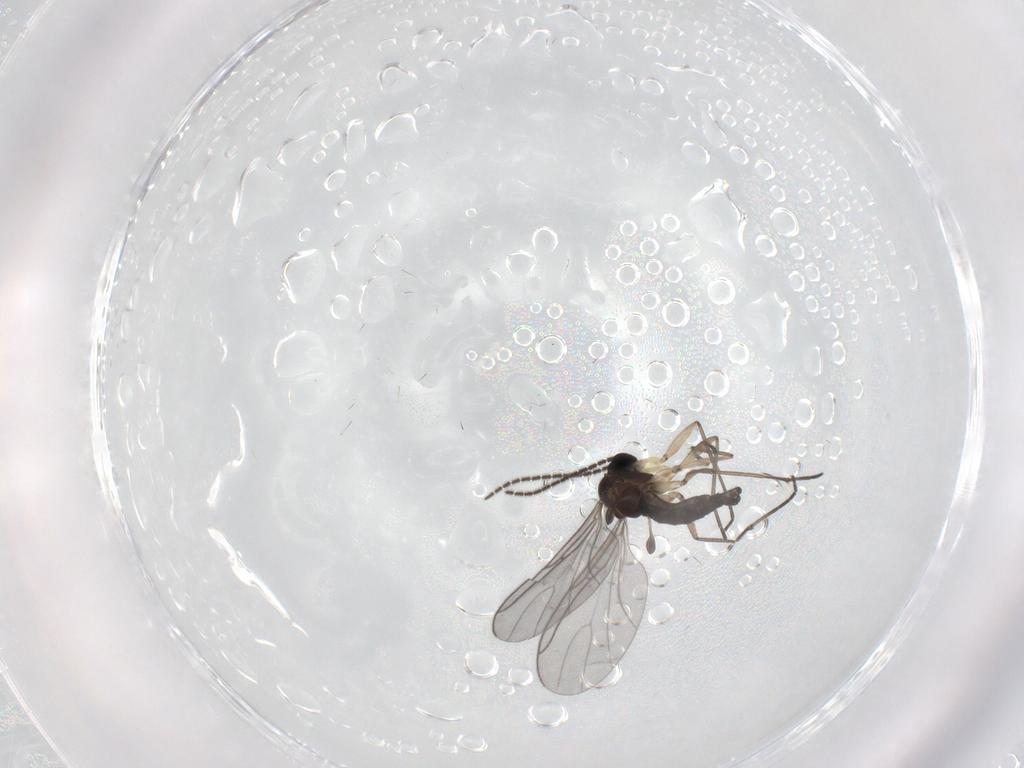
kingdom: Animalia
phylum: Arthropoda
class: Insecta
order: Diptera
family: Sciaridae
